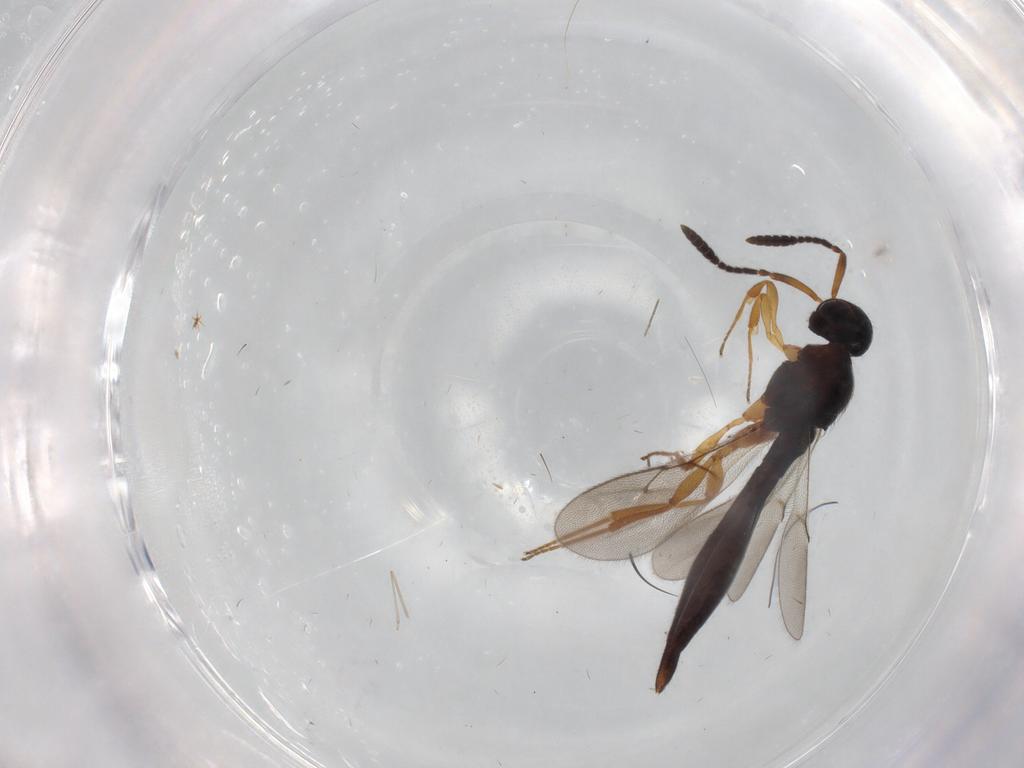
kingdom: Animalia
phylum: Arthropoda
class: Insecta
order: Hymenoptera
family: Scelionidae
